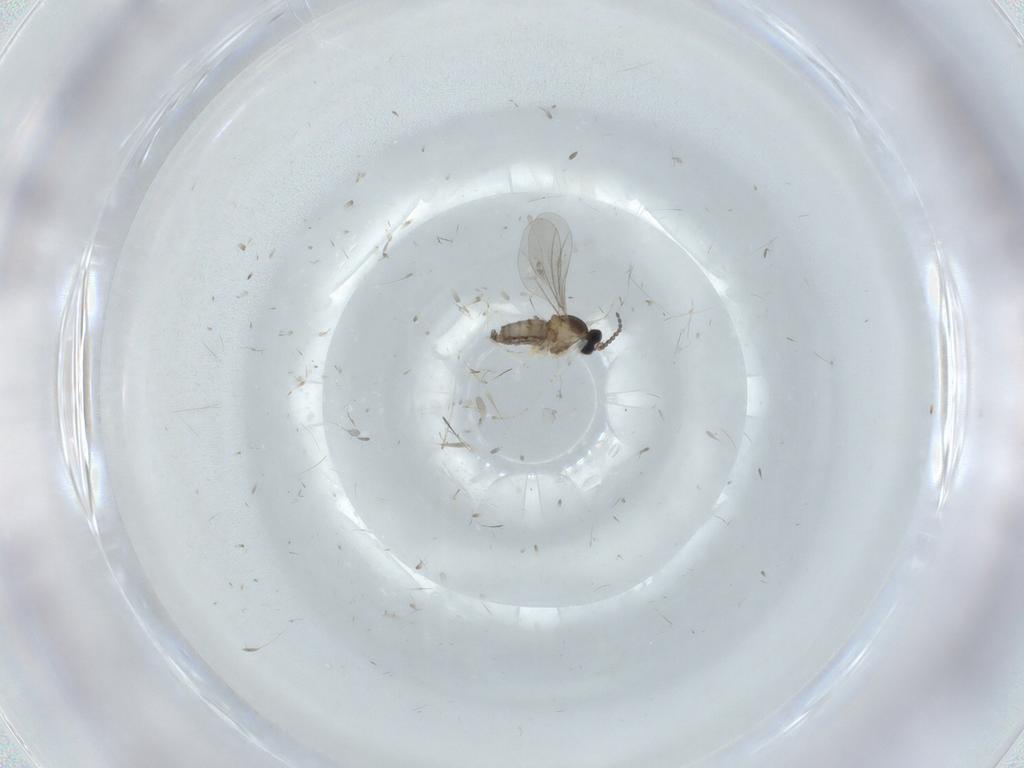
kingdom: Animalia
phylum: Arthropoda
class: Insecta
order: Diptera
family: Cecidomyiidae
